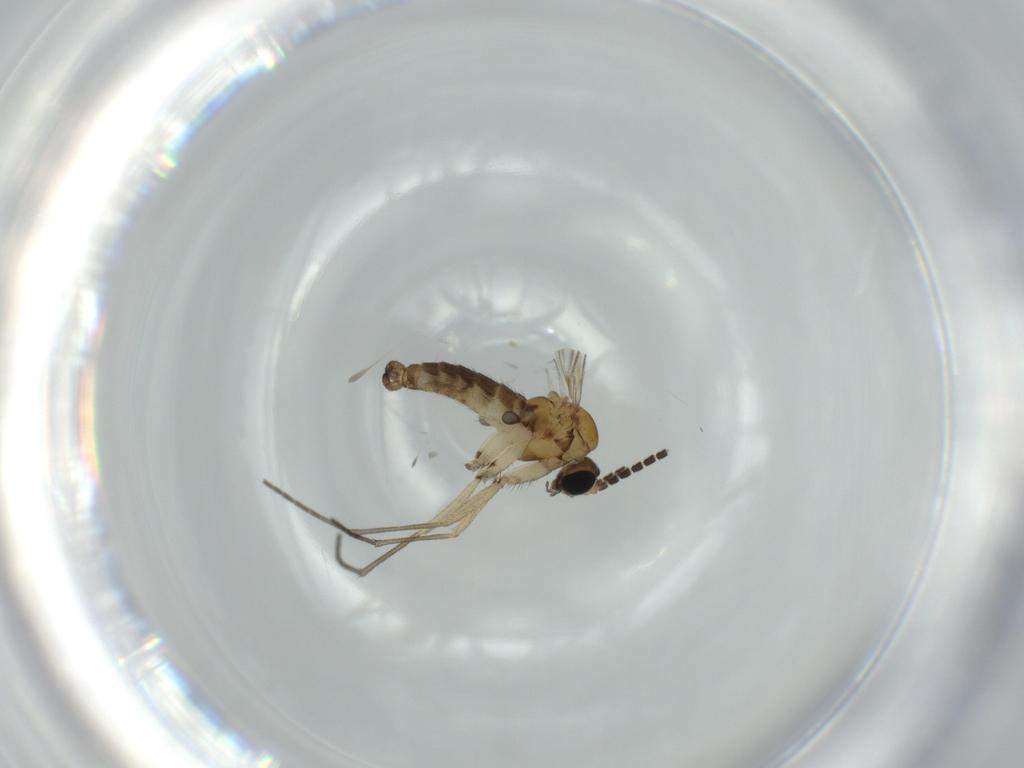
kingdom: Animalia
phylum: Arthropoda
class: Insecta
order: Diptera
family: Sciaridae
